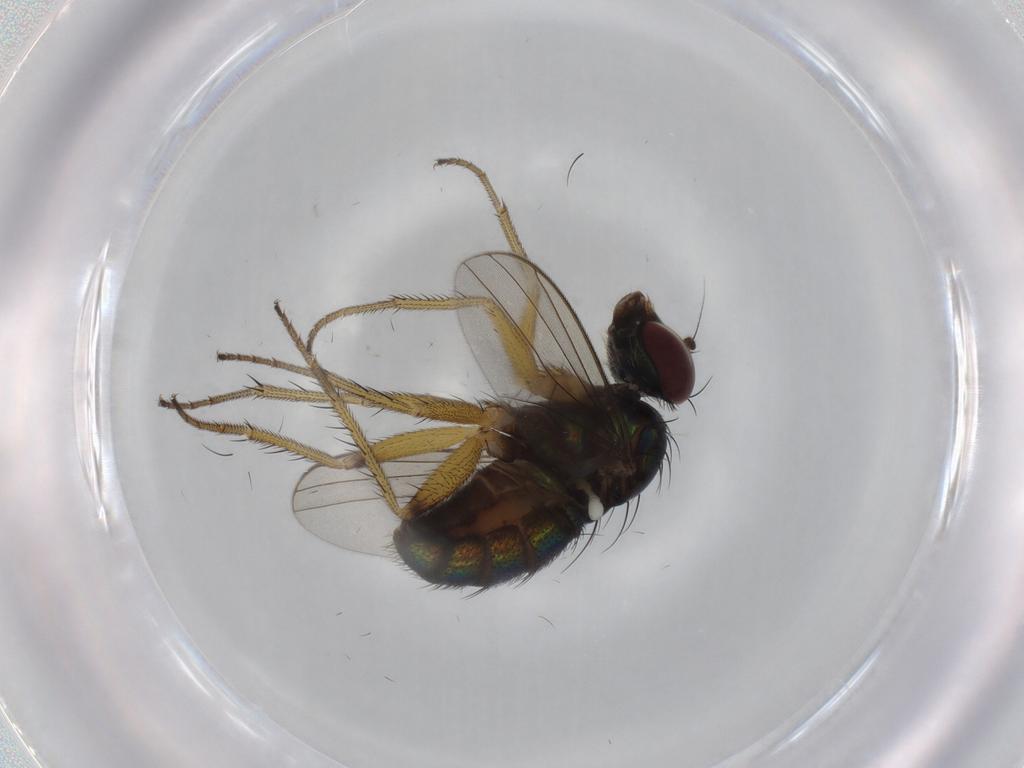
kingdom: Animalia
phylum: Arthropoda
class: Insecta
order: Diptera
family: Dolichopodidae
